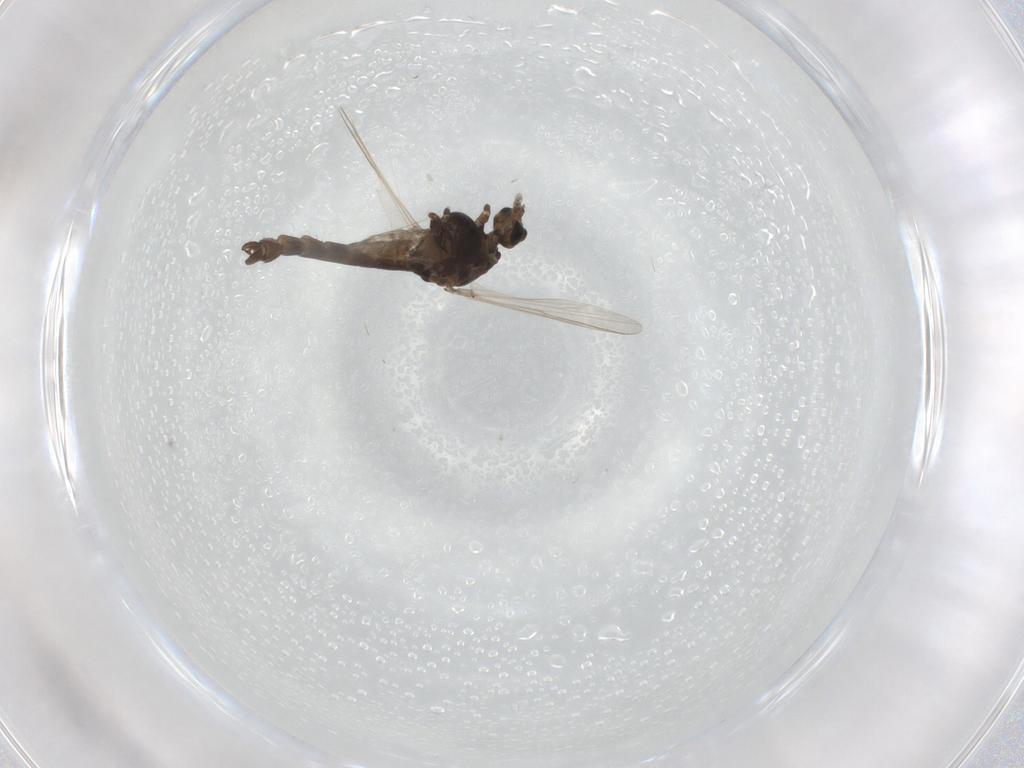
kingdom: Animalia
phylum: Arthropoda
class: Insecta
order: Diptera
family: Chironomidae
